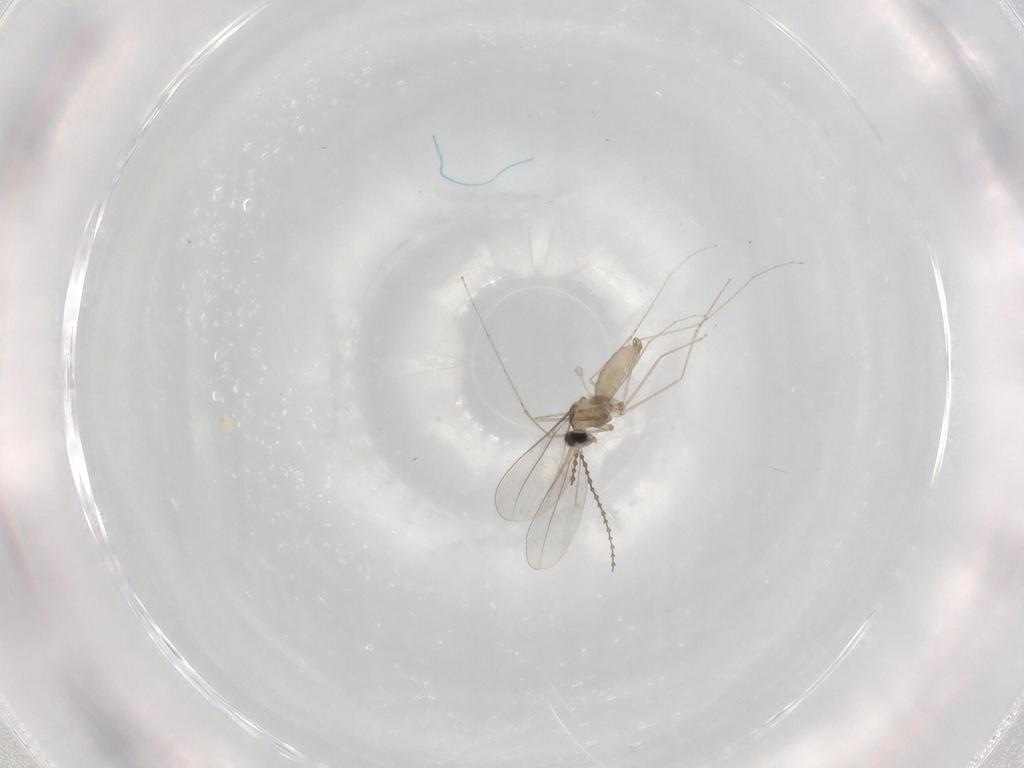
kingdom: Animalia
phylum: Arthropoda
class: Insecta
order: Diptera
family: Cecidomyiidae
